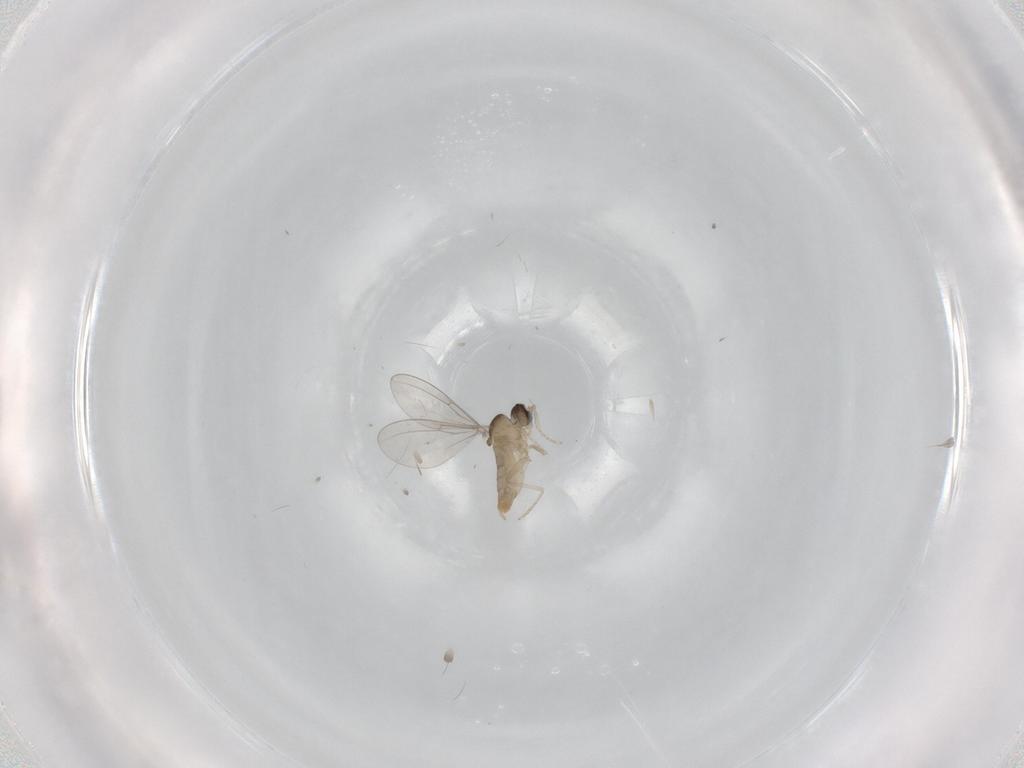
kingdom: Animalia
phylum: Arthropoda
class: Insecta
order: Diptera
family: Cecidomyiidae
